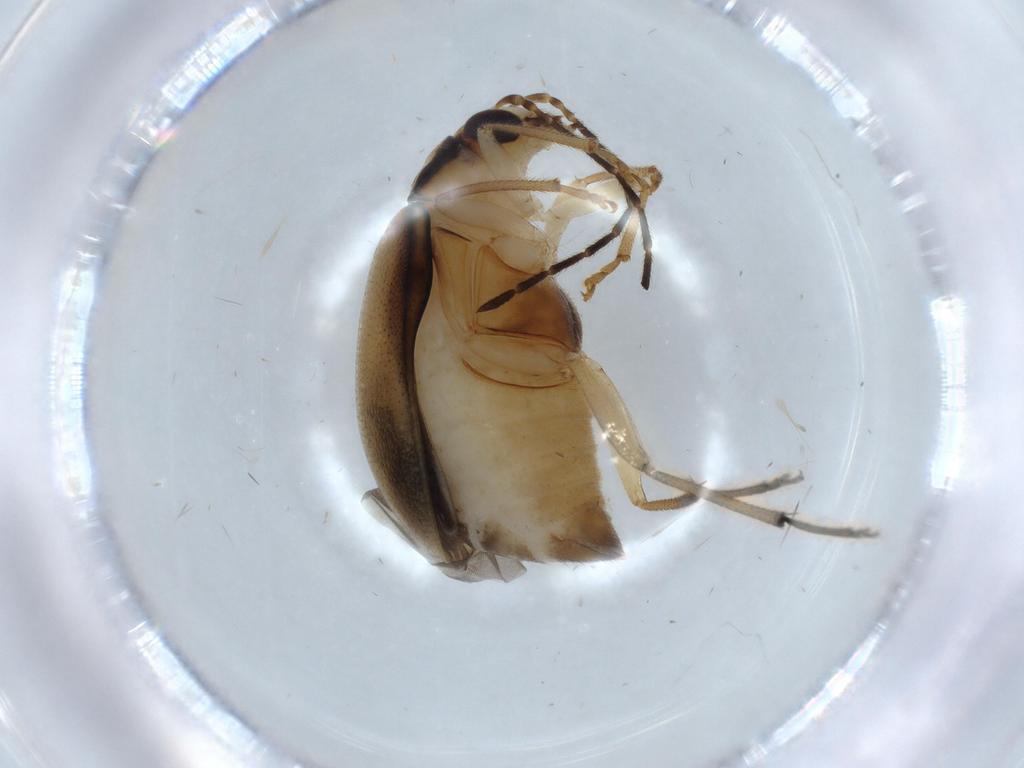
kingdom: Animalia
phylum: Arthropoda
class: Insecta
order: Coleoptera
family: Chrysomelidae
